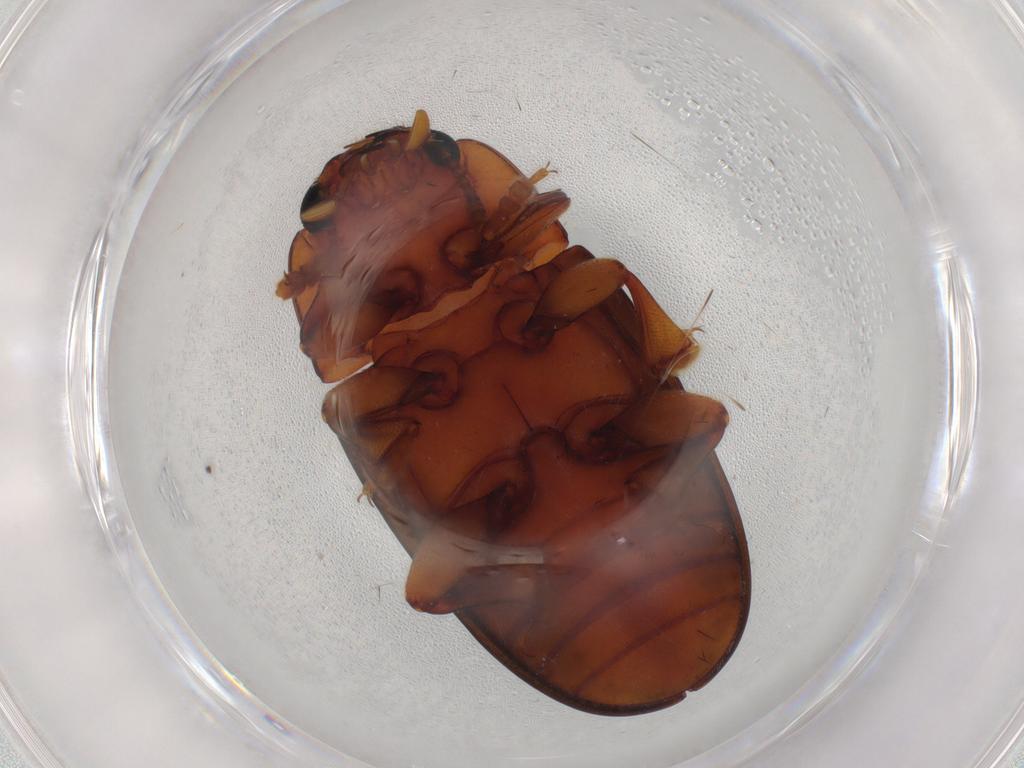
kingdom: Animalia
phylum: Arthropoda
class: Insecta
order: Coleoptera
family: Erotylidae
